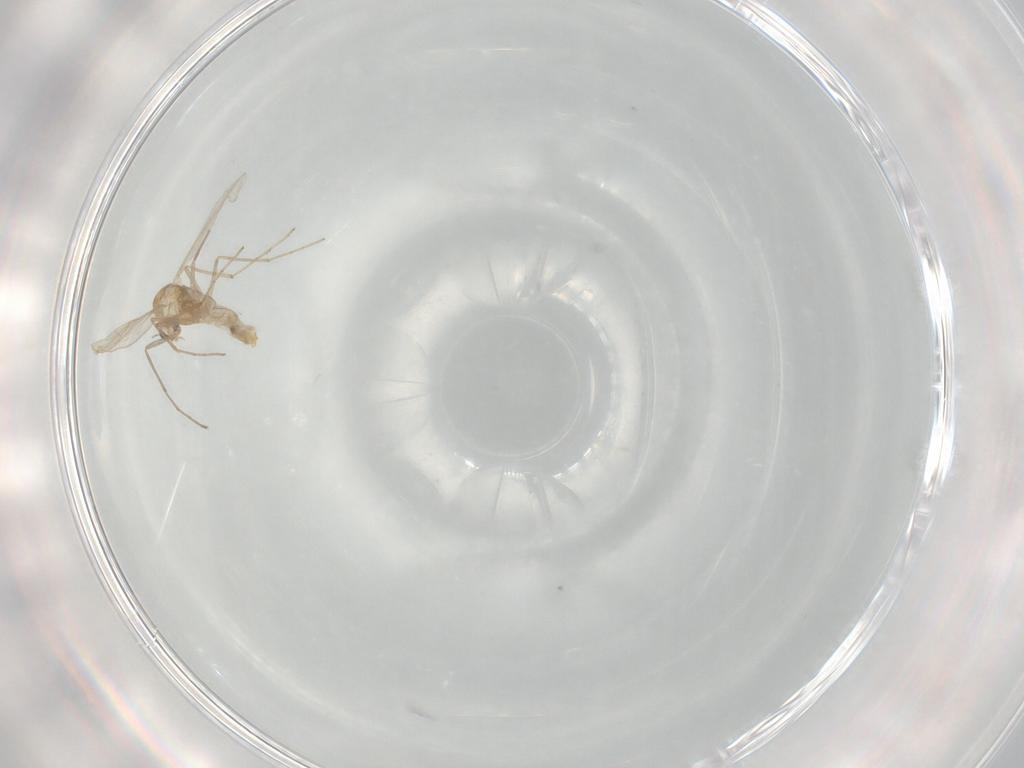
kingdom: Animalia
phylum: Arthropoda
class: Insecta
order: Diptera
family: Chironomidae
